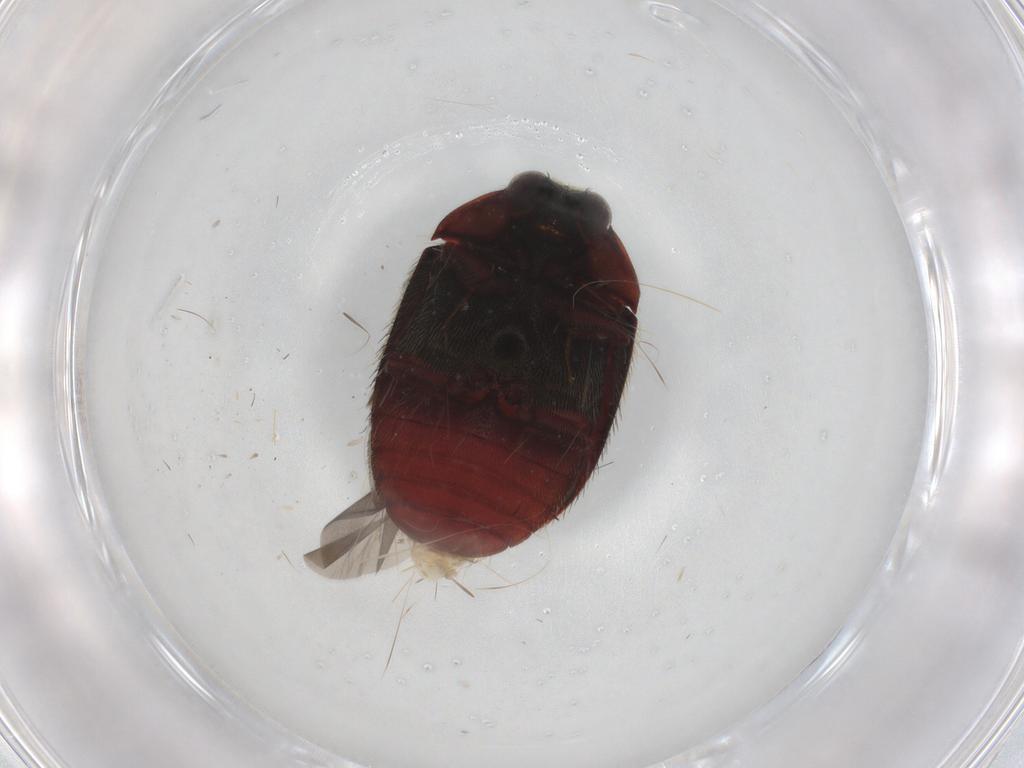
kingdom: Animalia
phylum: Arthropoda
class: Insecta
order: Coleoptera
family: Dermestidae
